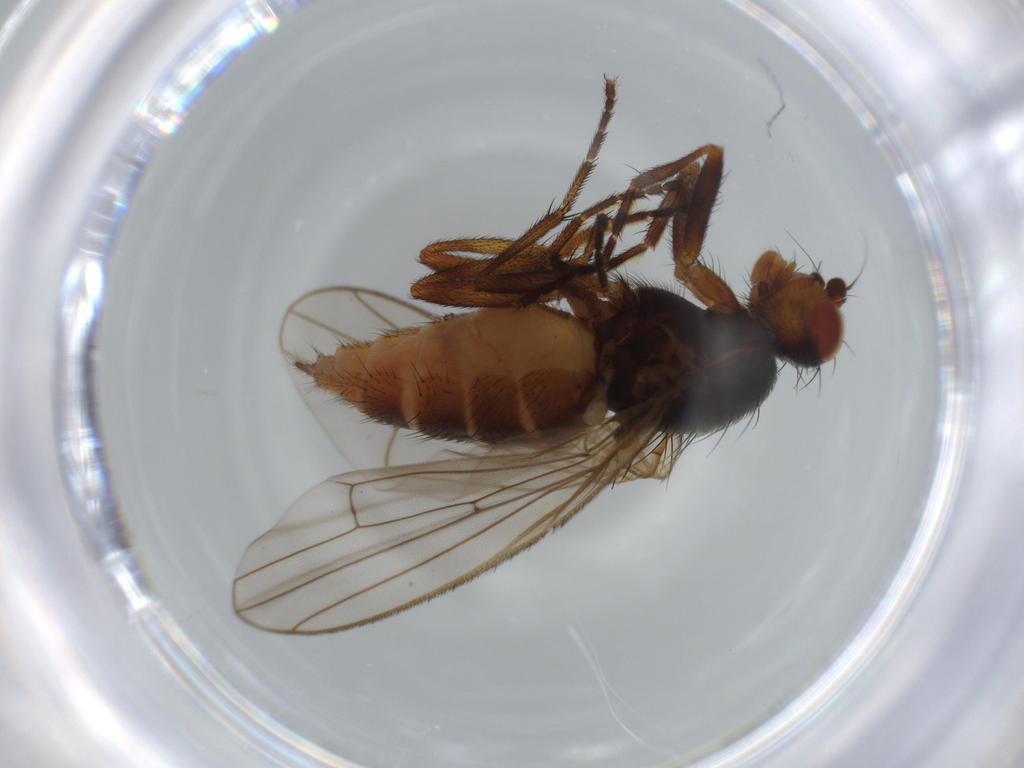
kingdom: Animalia
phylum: Arthropoda
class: Insecta
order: Diptera
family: Heleomyzidae
